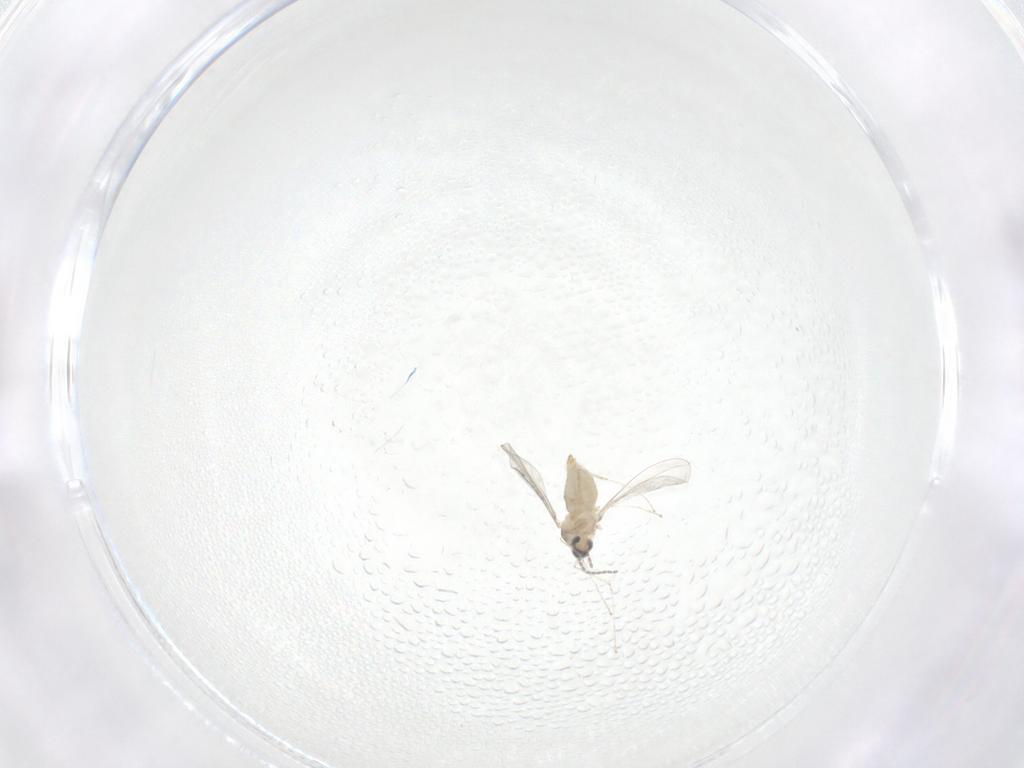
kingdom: Animalia
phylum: Arthropoda
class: Insecta
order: Diptera
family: Cecidomyiidae
